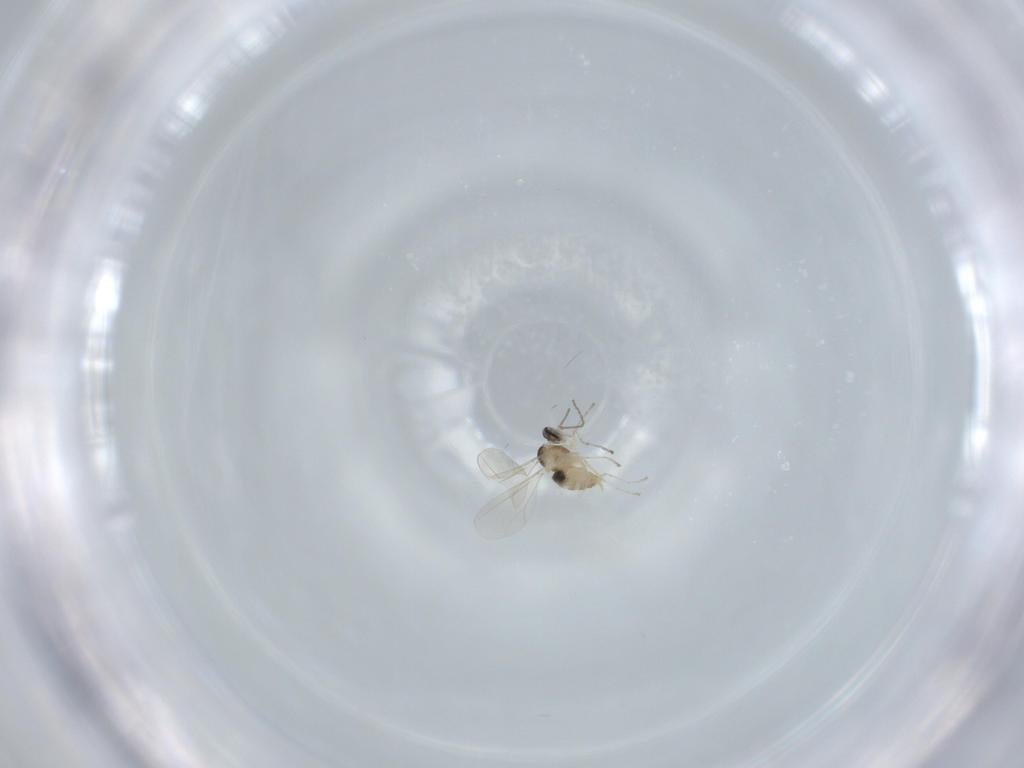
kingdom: Animalia
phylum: Arthropoda
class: Insecta
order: Diptera
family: Cecidomyiidae
